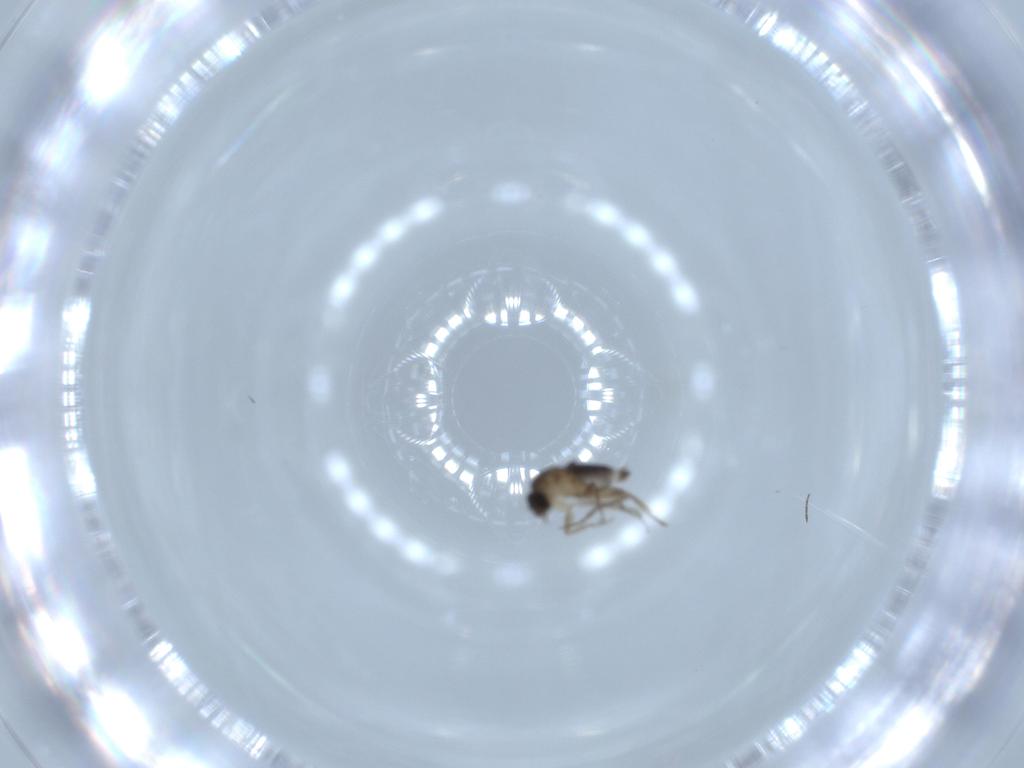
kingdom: Animalia
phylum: Arthropoda
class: Insecta
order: Diptera
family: Phoridae
